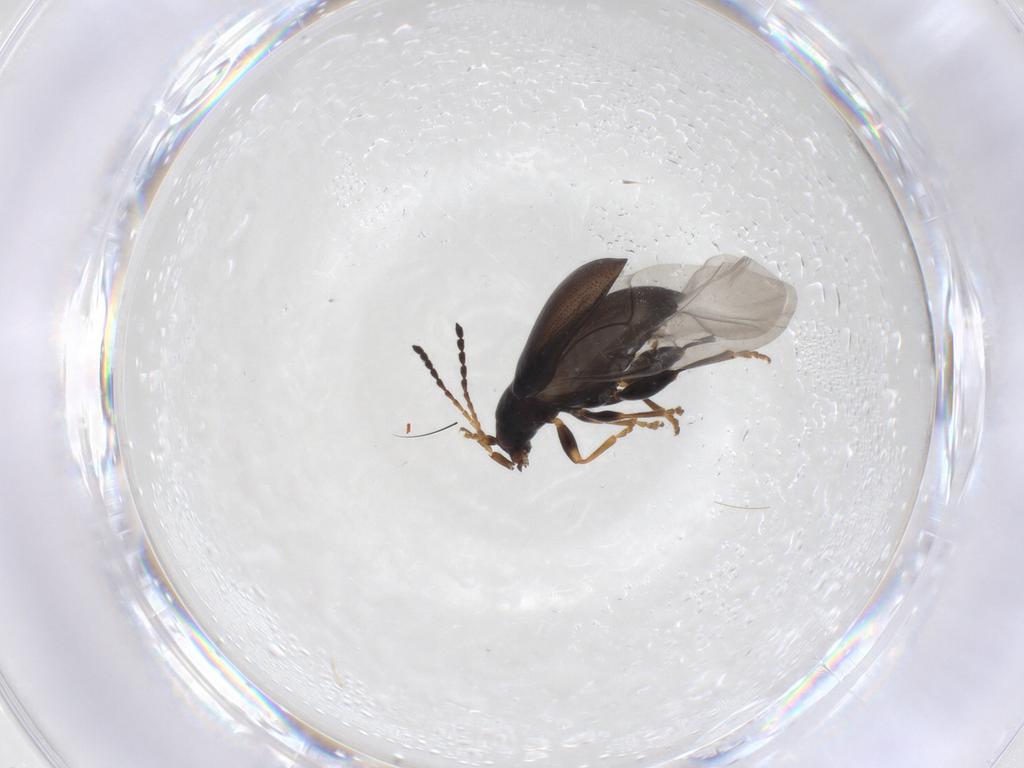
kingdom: Animalia
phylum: Arthropoda
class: Insecta
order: Coleoptera
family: Chrysomelidae
